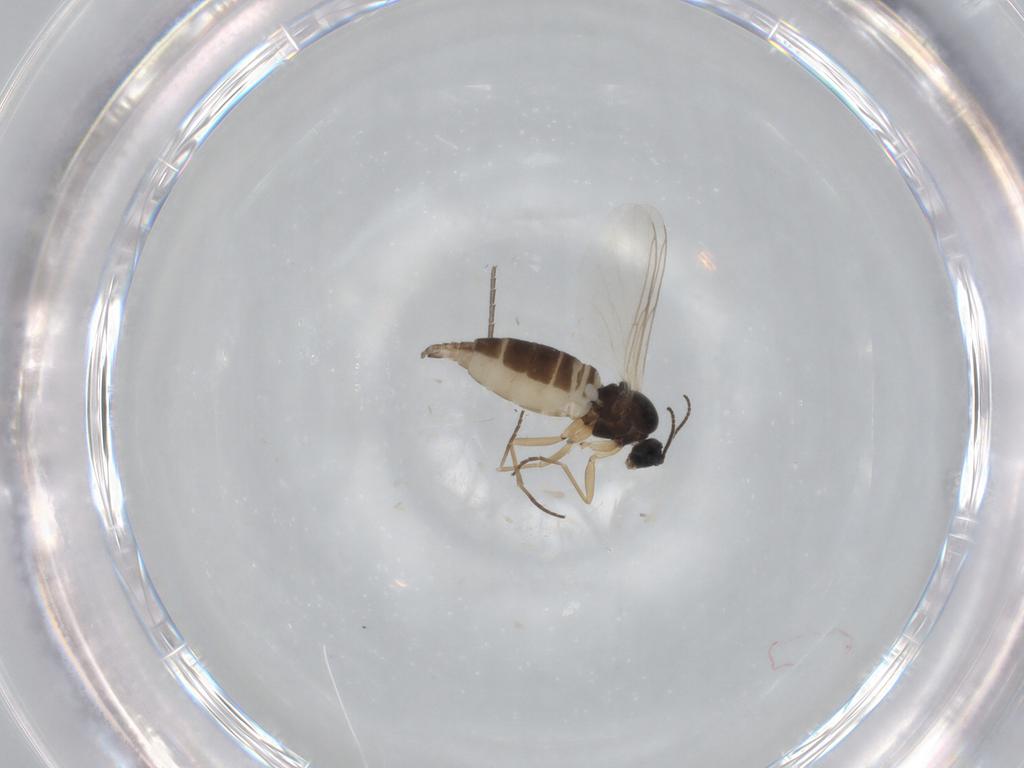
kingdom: Animalia
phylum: Arthropoda
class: Insecta
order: Diptera
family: Sciaridae
